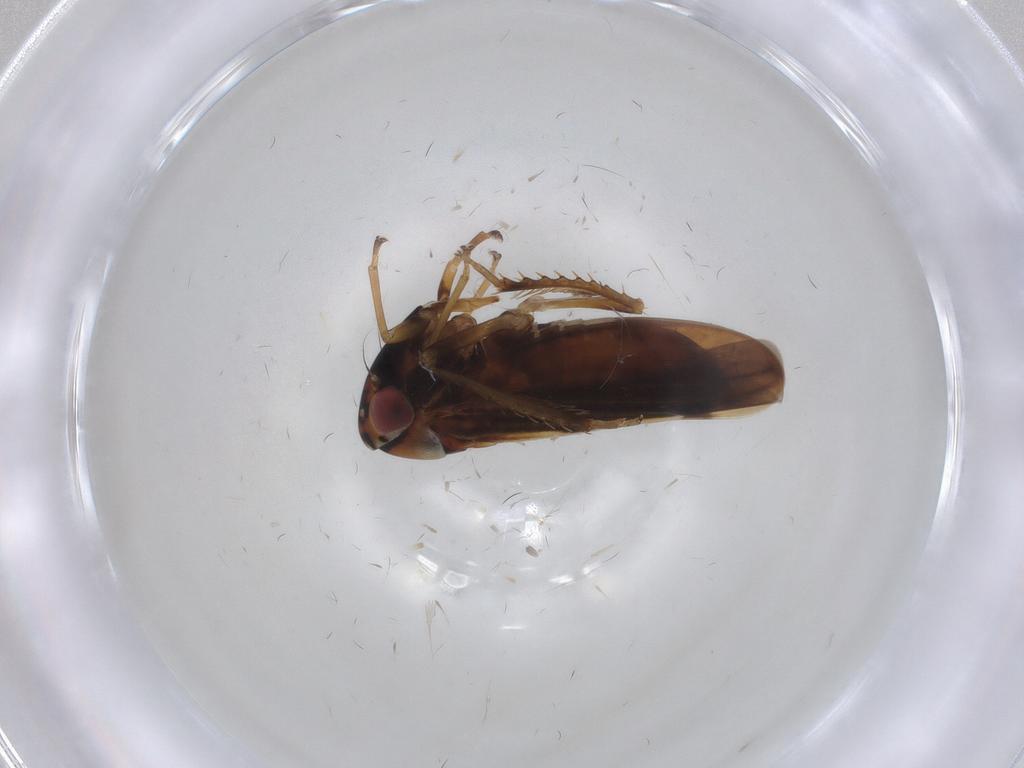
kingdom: Animalia
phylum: Arthropoda
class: Insecta
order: Hemiptera
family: Cicadellidae
